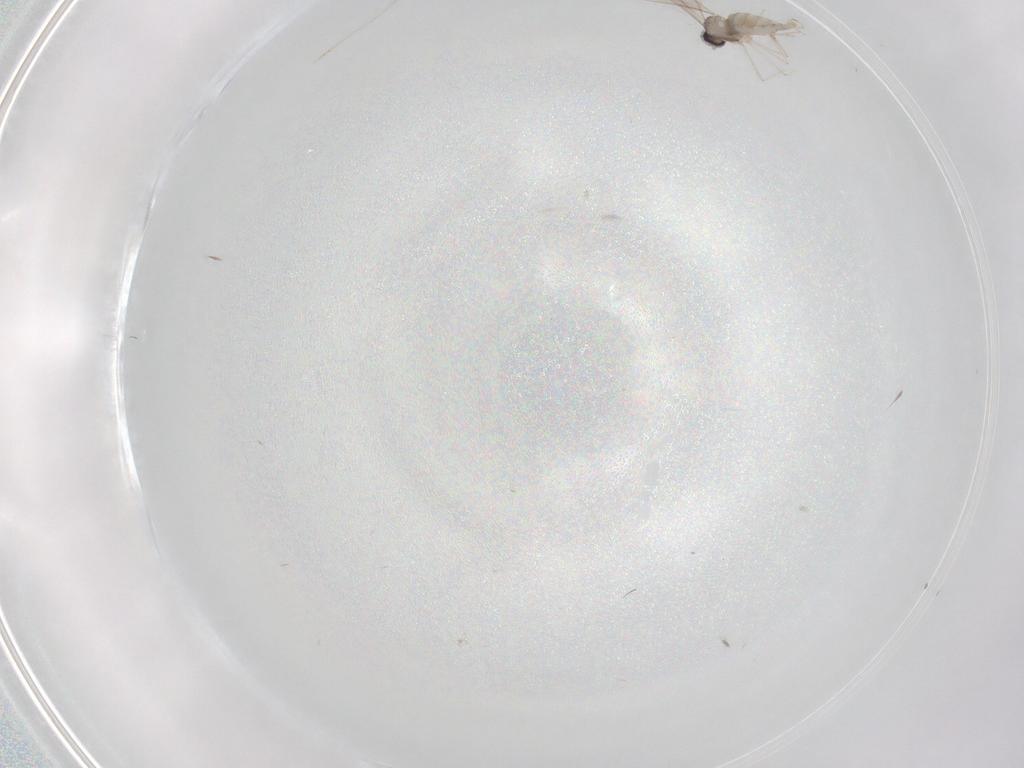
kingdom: Animalia
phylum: Arthropoda
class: Insecta
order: Diptera
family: Cecidomyiidae
